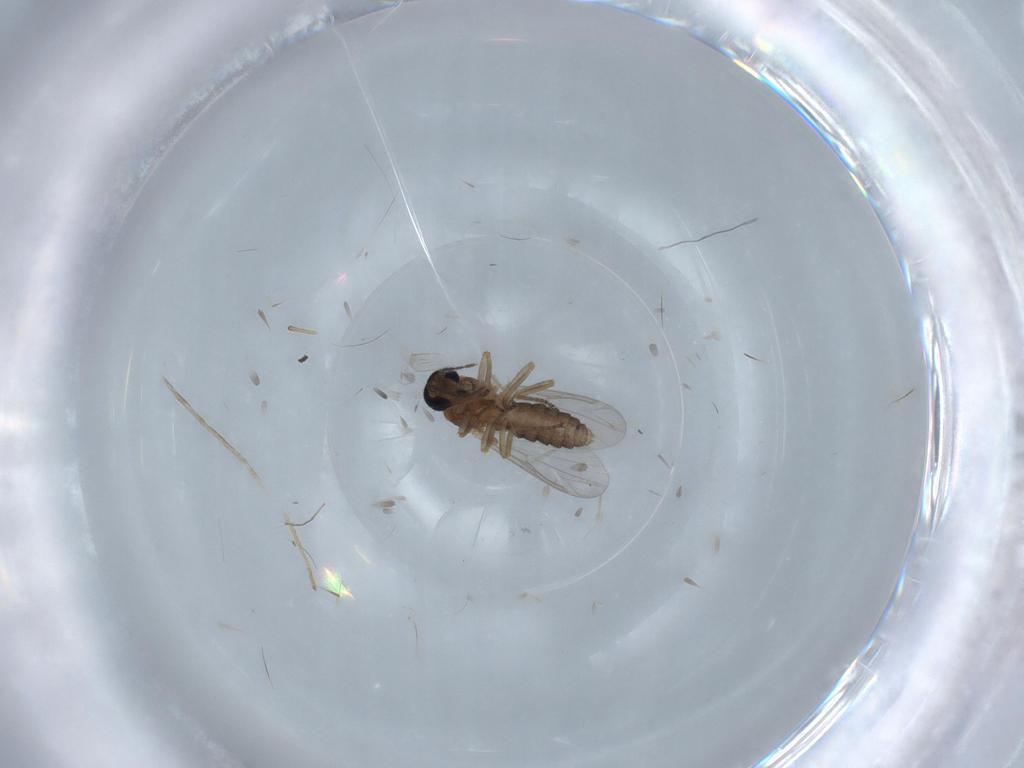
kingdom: Animalia
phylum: Arthropoda
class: Insecta
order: Diptera
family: Ceratopogonidae
